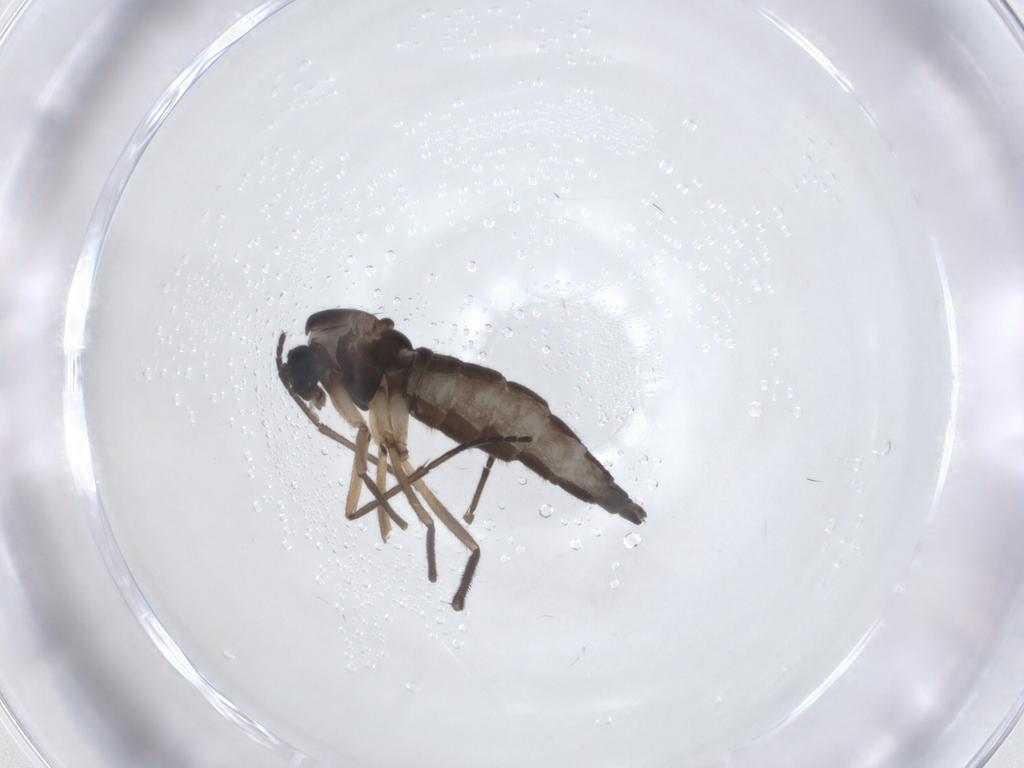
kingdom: Animalia
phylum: Arthropoda
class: Insecta
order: Diptera
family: Sciaridae
